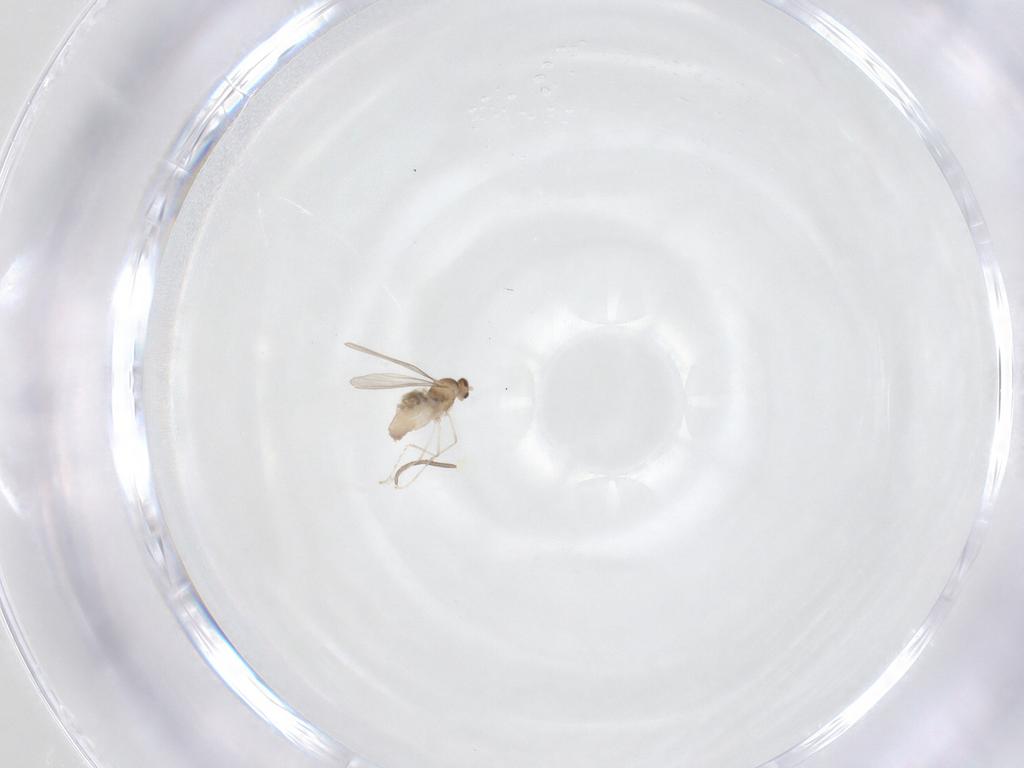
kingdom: Animalia
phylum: Arthropoda
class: Insecta
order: Diptera
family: Cecidomyiidae
